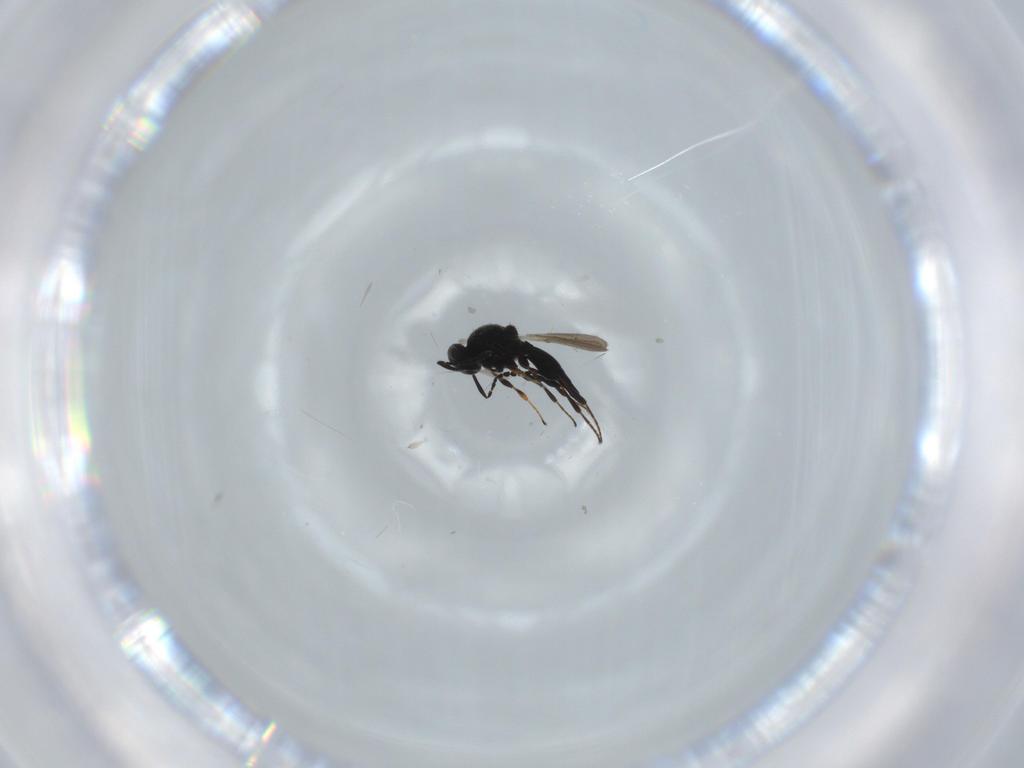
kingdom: Animalia
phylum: Arthropoda
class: Insecta
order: Hymenoptera
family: Platygastridae
